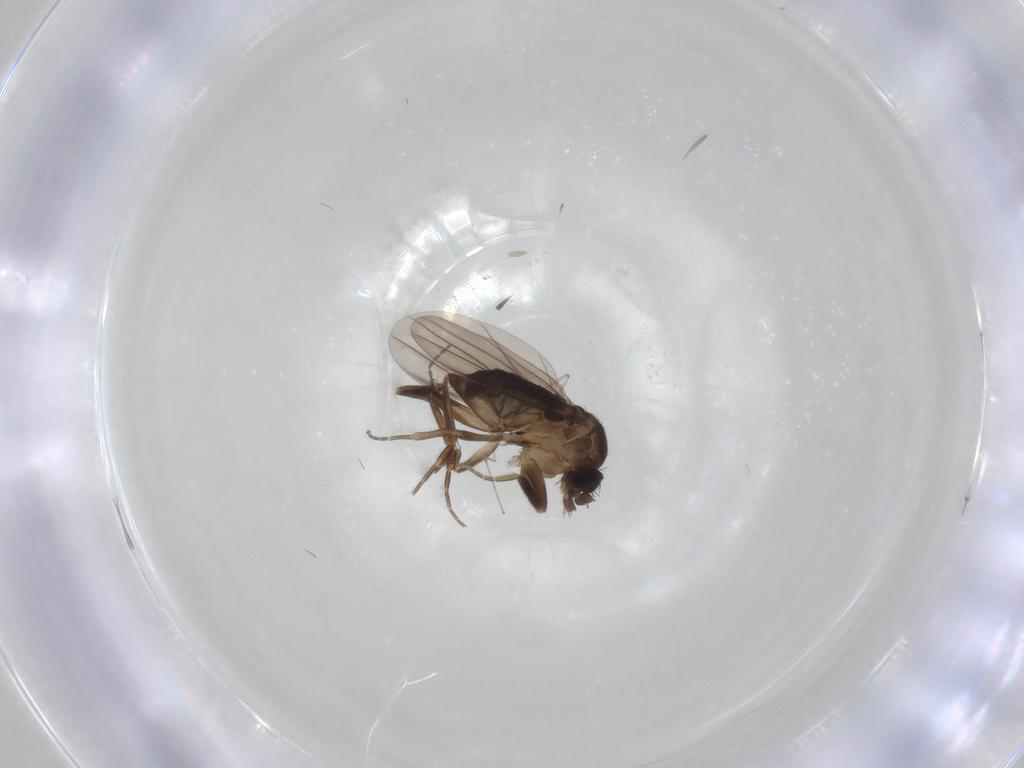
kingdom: Animalia
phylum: Arthropoda
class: Insecta
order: Diptera
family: Cecidomyiidae
